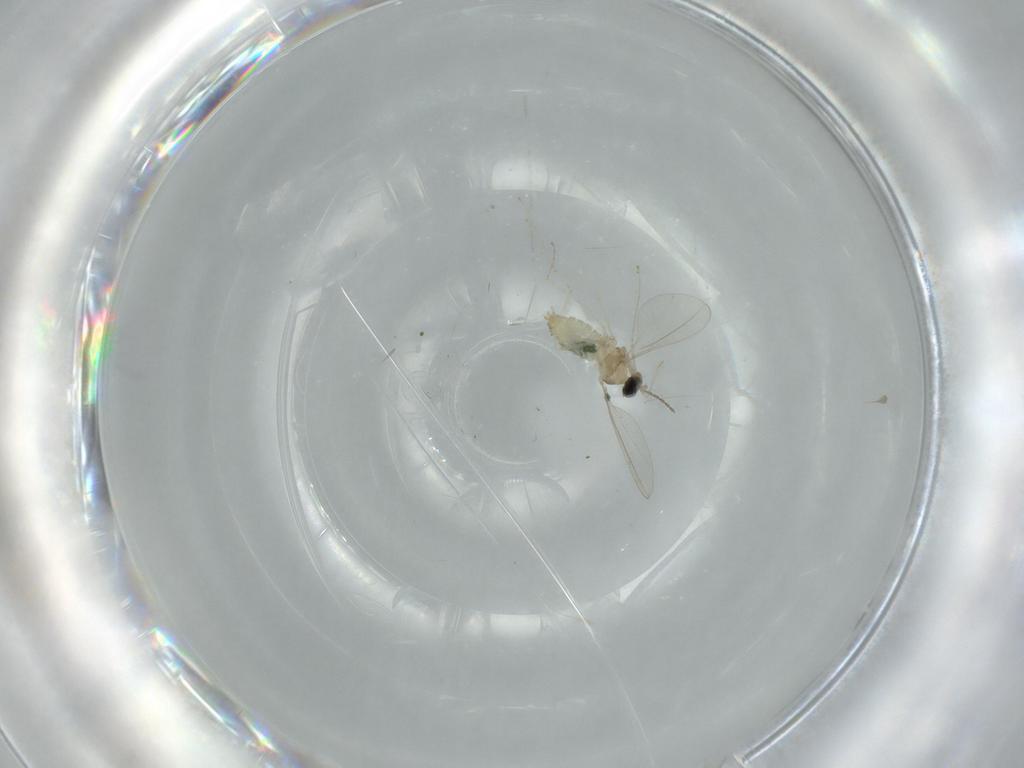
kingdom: Animalia
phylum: Arthropoda
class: Insecta
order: Diptera
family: Cecidomyiidae
